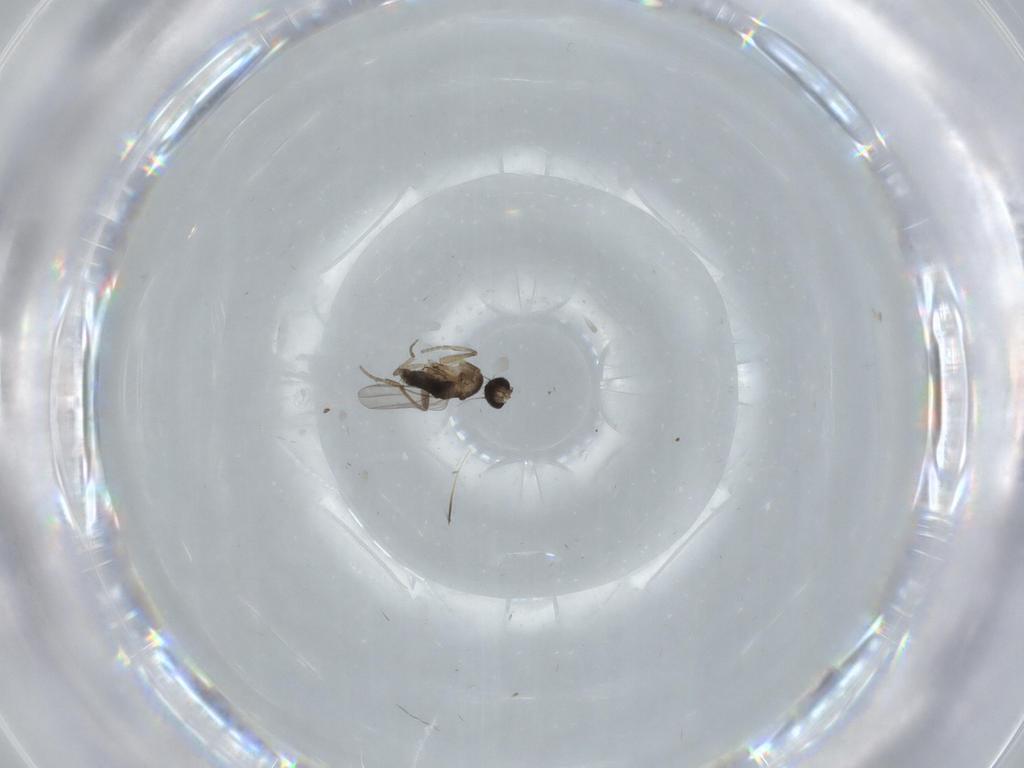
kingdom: Animalia
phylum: Arthropoda
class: Insecta
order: Diptera
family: Phoridae
